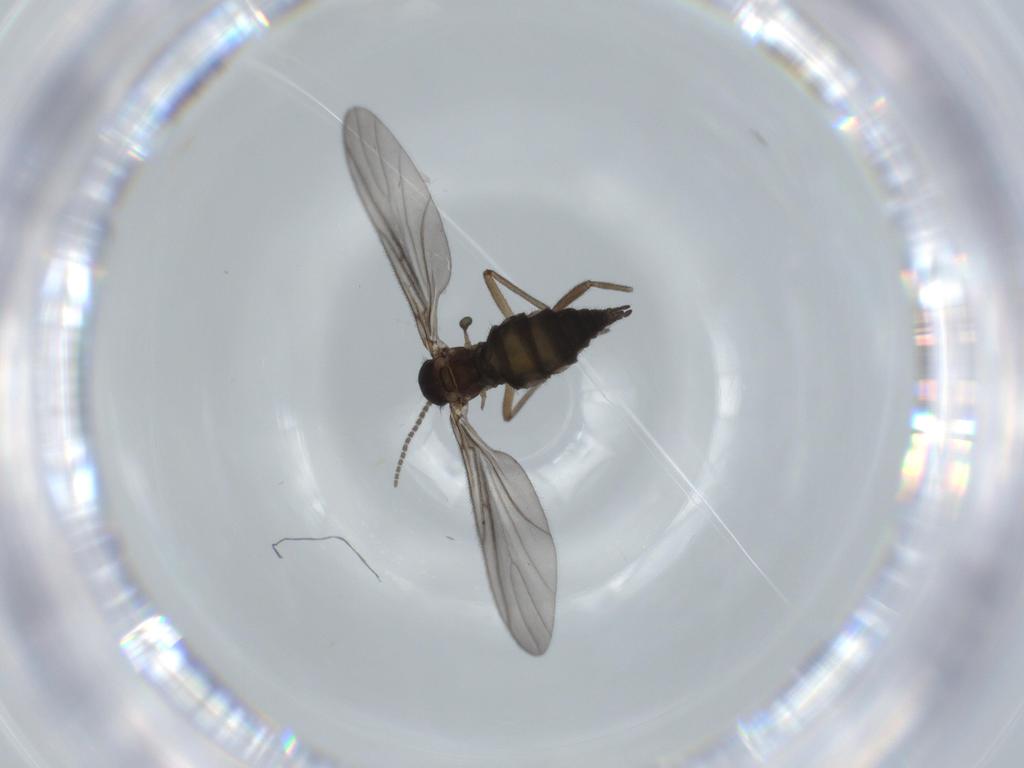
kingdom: Animalia
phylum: Arthropoda
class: Insecta
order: Diptera
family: Sciaridae
